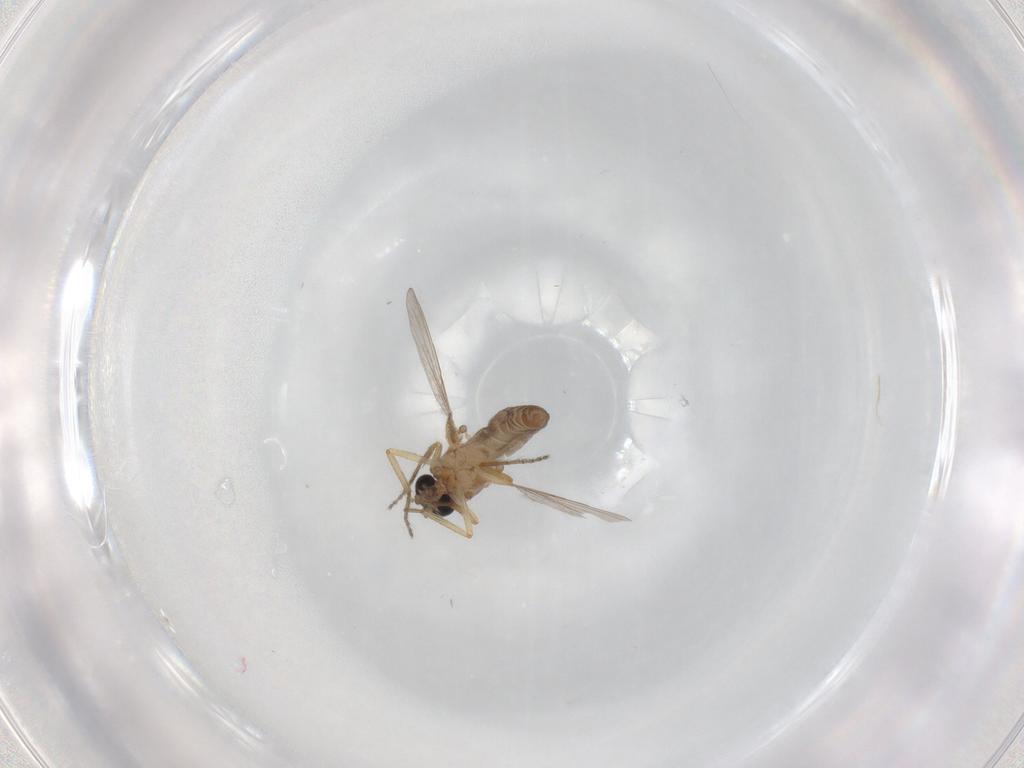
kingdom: Animalia
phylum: Arthropoda
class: Insecta
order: Diptera
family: Ceratopogonidae
